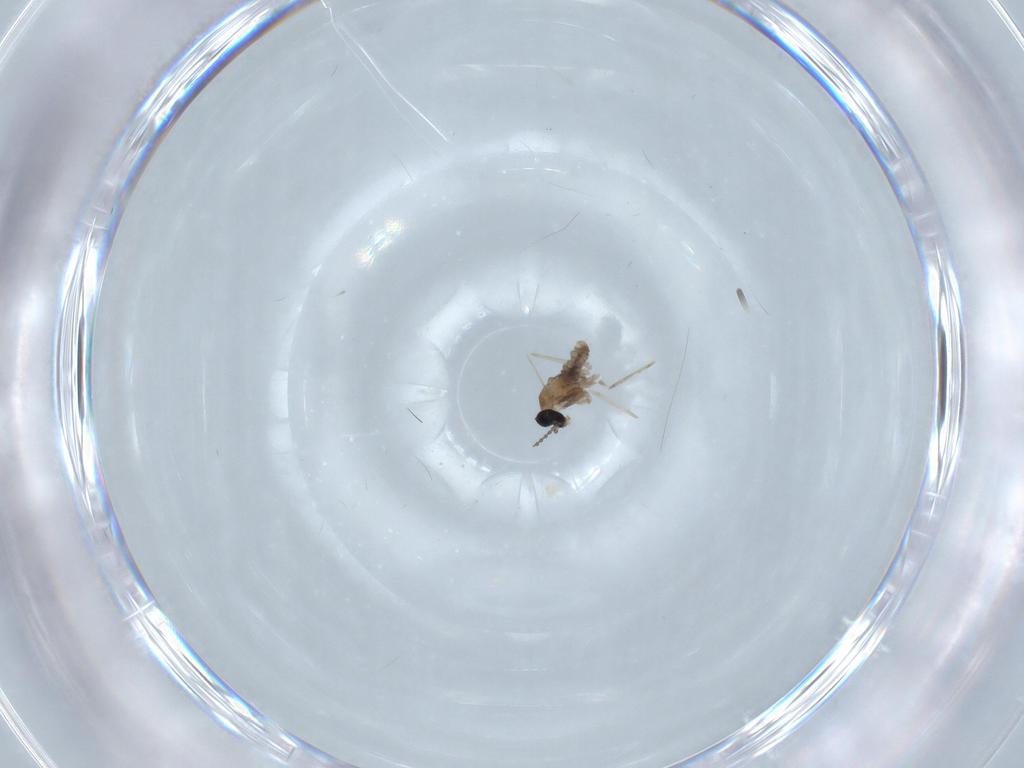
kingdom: Animalia
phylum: Arthropoda
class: Insecta
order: Diptera
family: Cecidomyiidae
